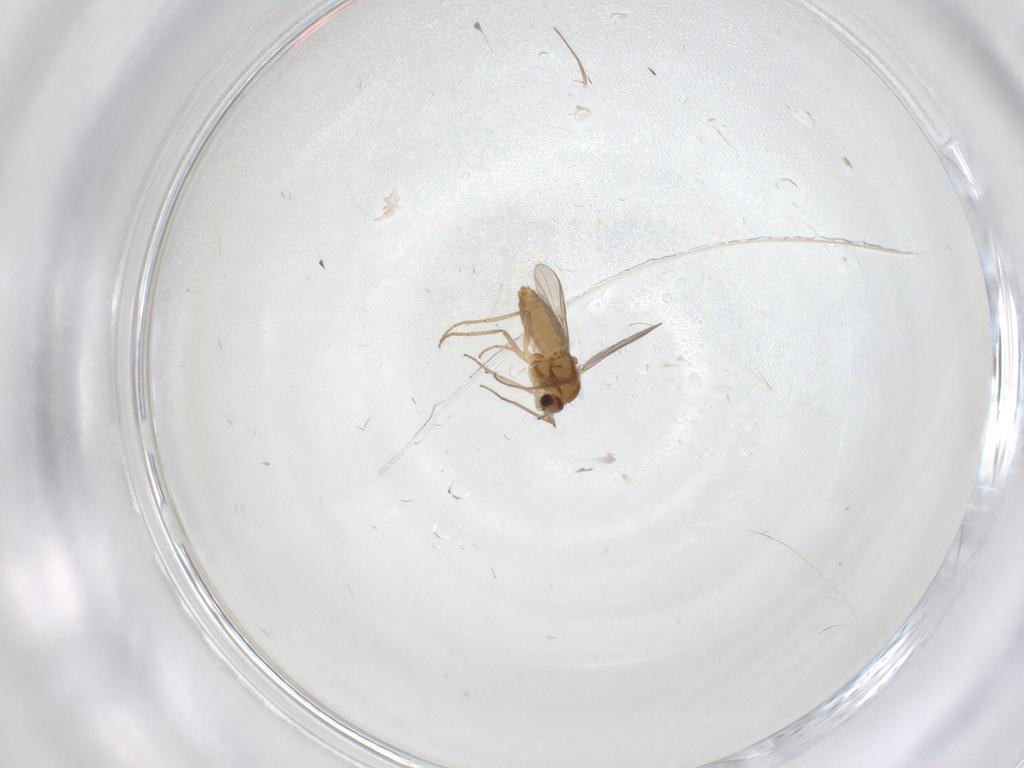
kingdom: Animalia
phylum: Arthropoda
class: Insecta
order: Diptera
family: Chironomidae
